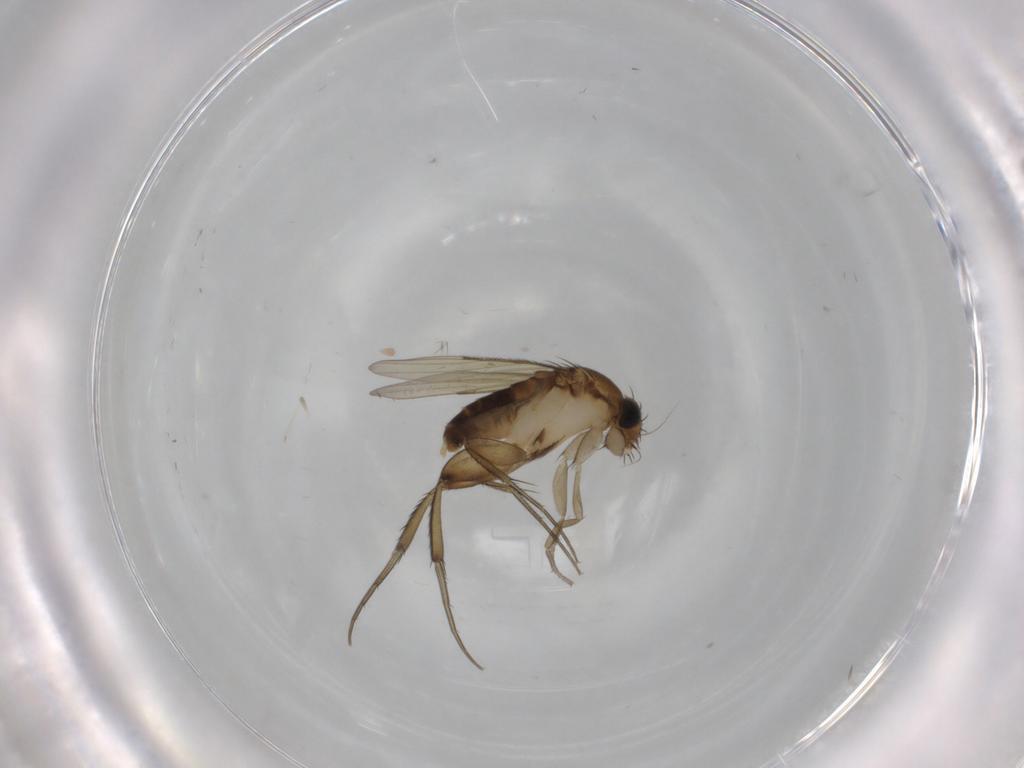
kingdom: Animalia
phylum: Arthropoda
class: Insecta
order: Diptera
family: Phoridae
